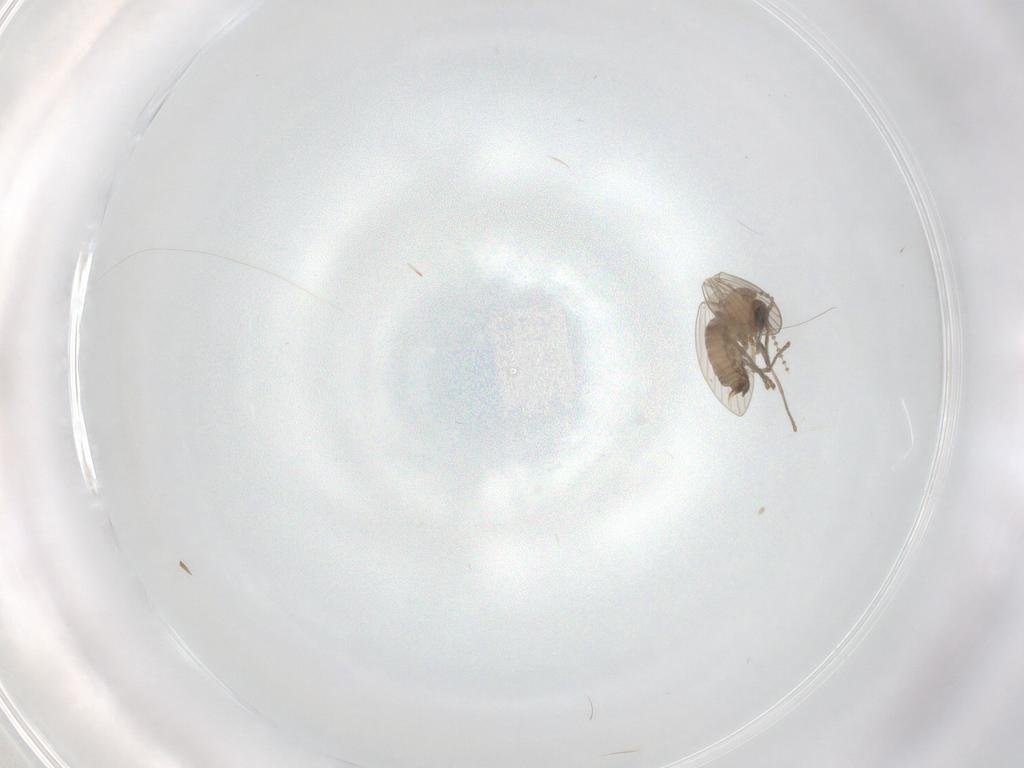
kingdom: Animalia
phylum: Arthropoda
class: Insecta
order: Diptera
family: Psychodidae
